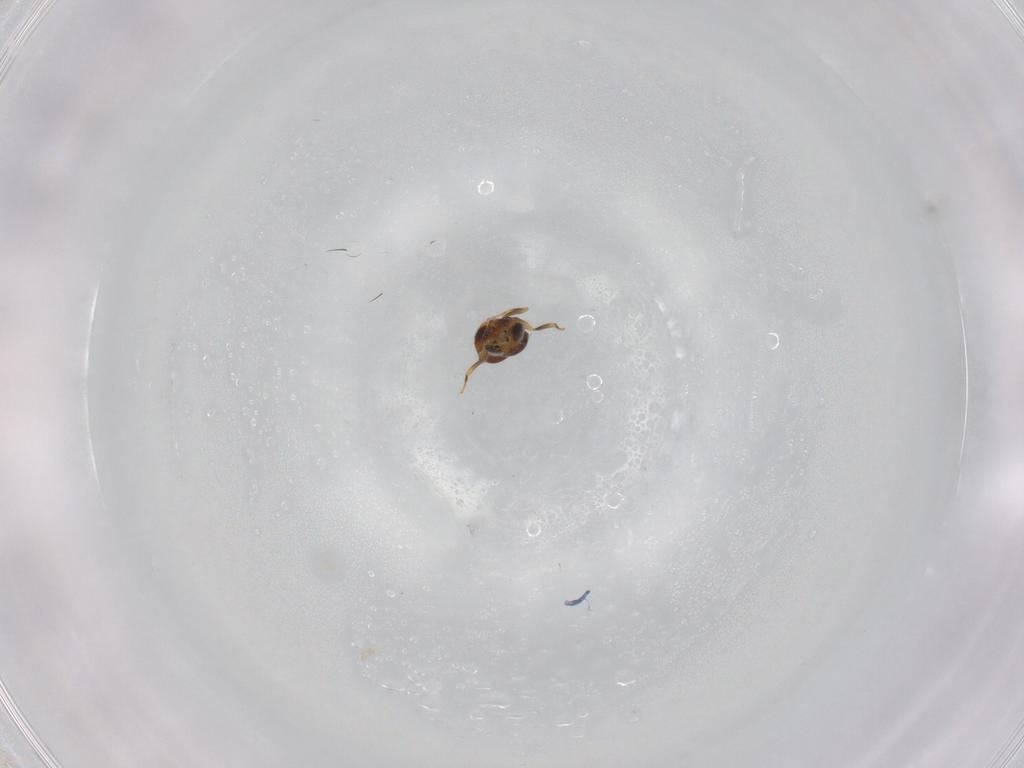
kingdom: Animalia
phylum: Arthropoda
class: Insecta
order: Hymenoptera
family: Scelionidae
